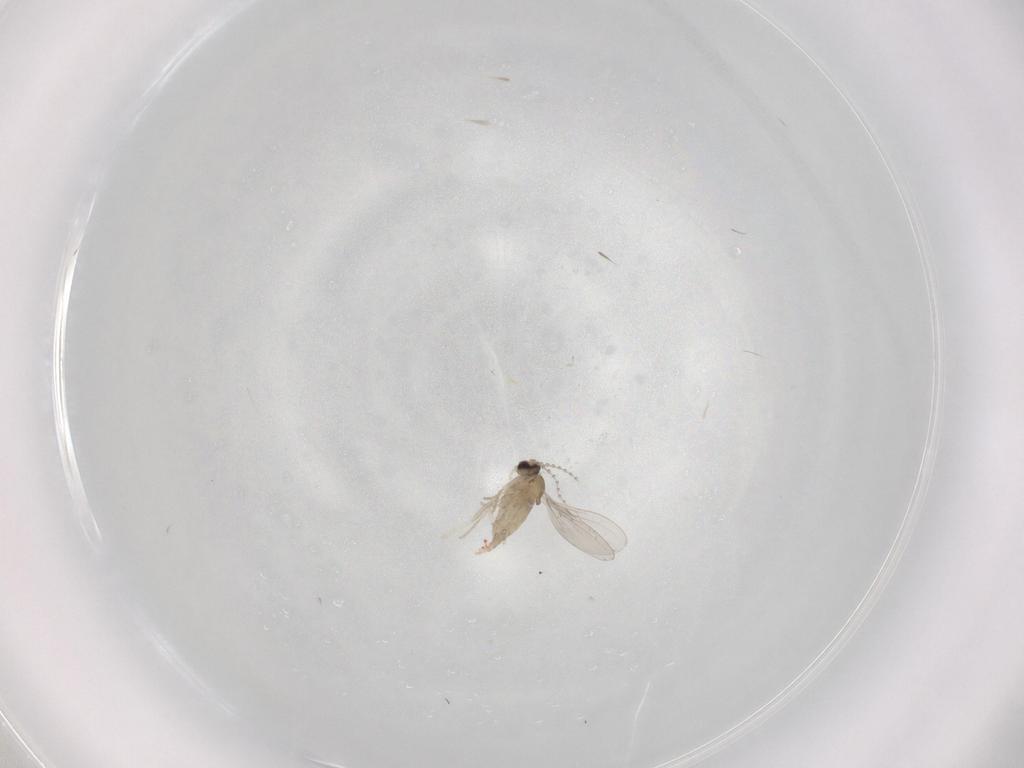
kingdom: Animalia
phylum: Arthropoda
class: Insecta
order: Diptera
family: Cecidomyiidae
